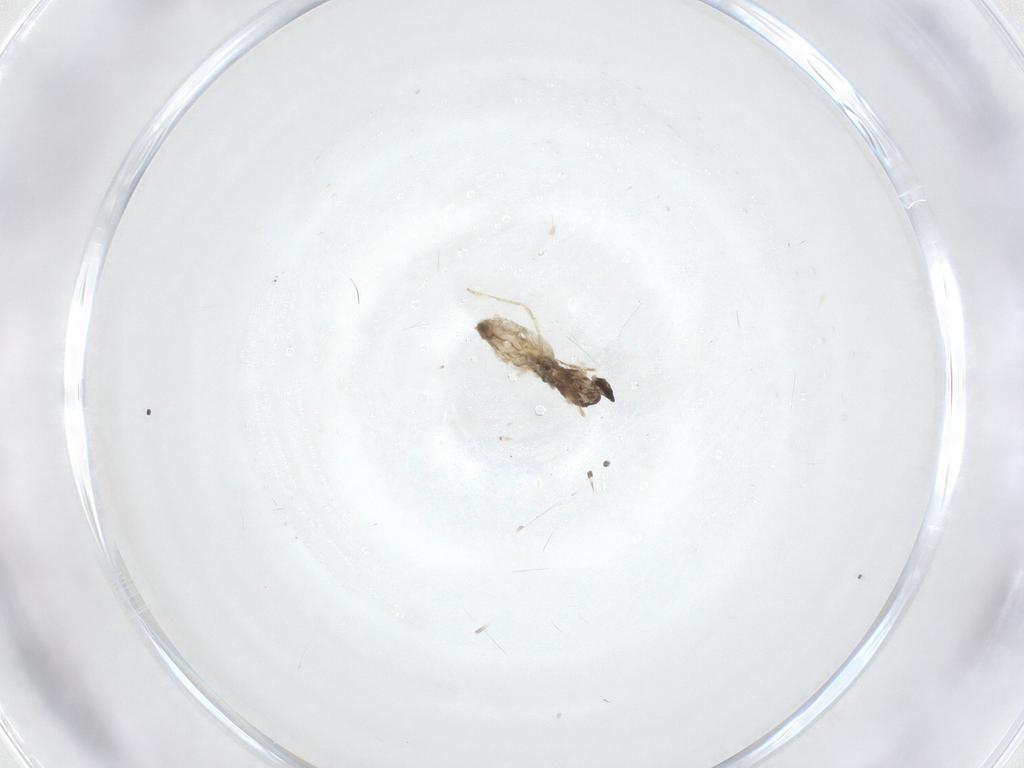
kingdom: Animalia
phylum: Arthropoda
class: Insecta
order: Diptera
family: Cecidomyiidae
